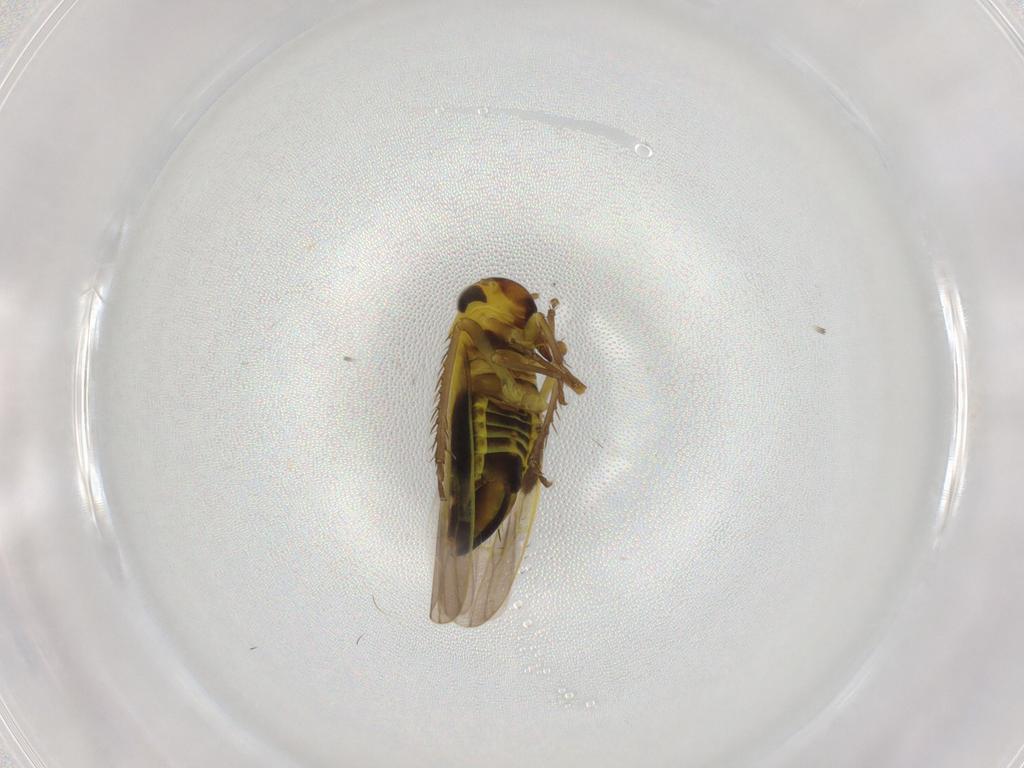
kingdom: Animalia
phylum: Arthropoda
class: Insecta
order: Hemiptera
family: Cicadellidae
